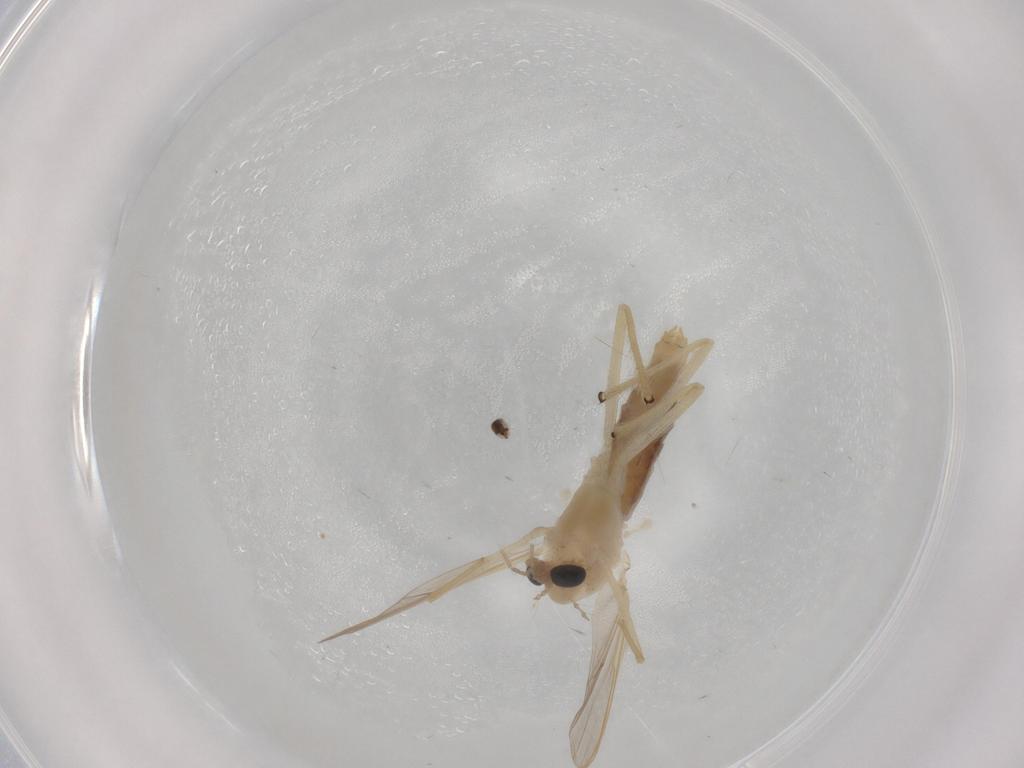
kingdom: Animalia
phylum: Arthropoda
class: Insecta
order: Diptera
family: Chironomidae
